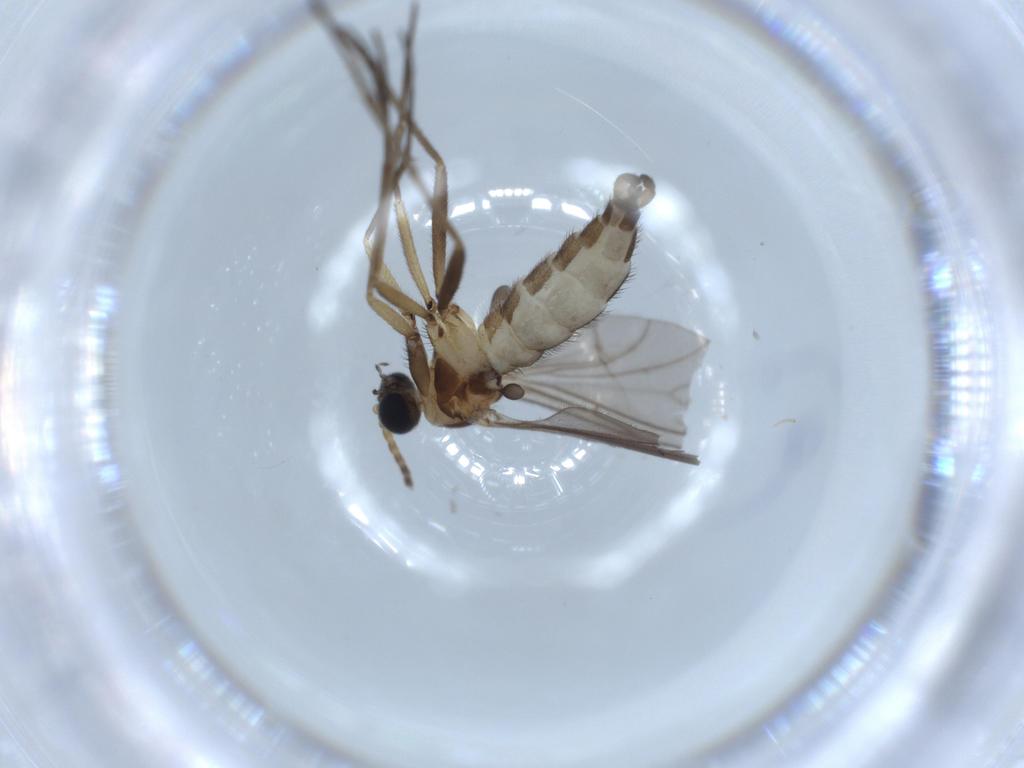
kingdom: Animalia
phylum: Arthropoda
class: Insecta
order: Diptera
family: Sciaridae
